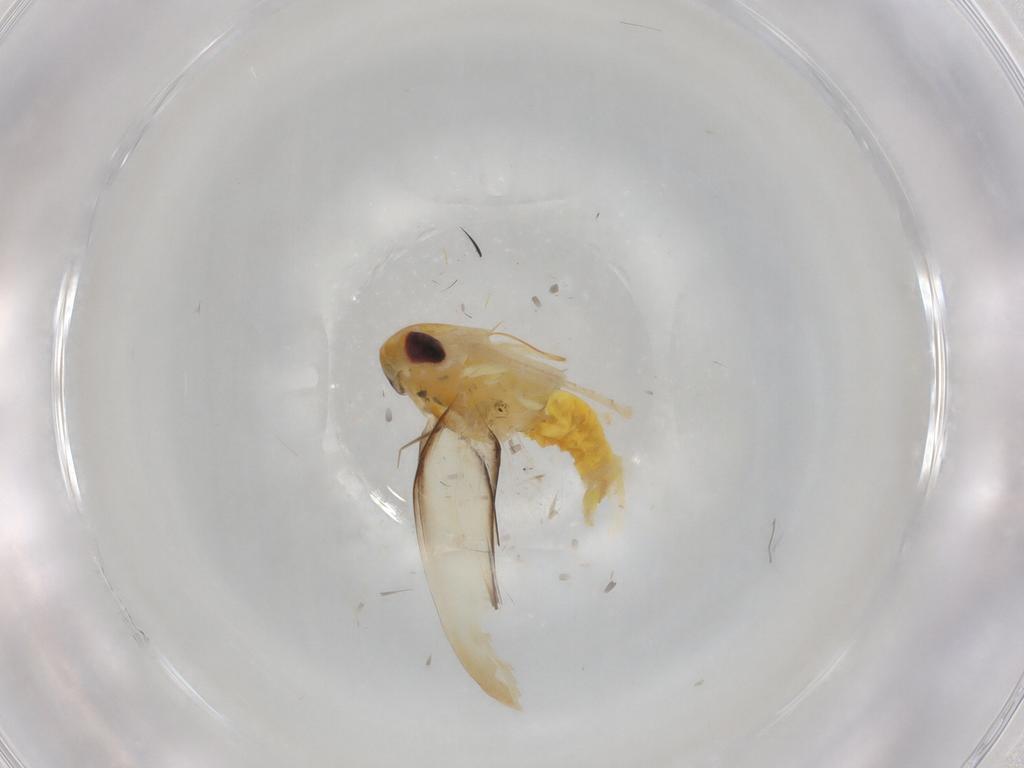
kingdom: Animalia
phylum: Arthropoda
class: Insecta
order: Hemiptera
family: Cicadellidae
